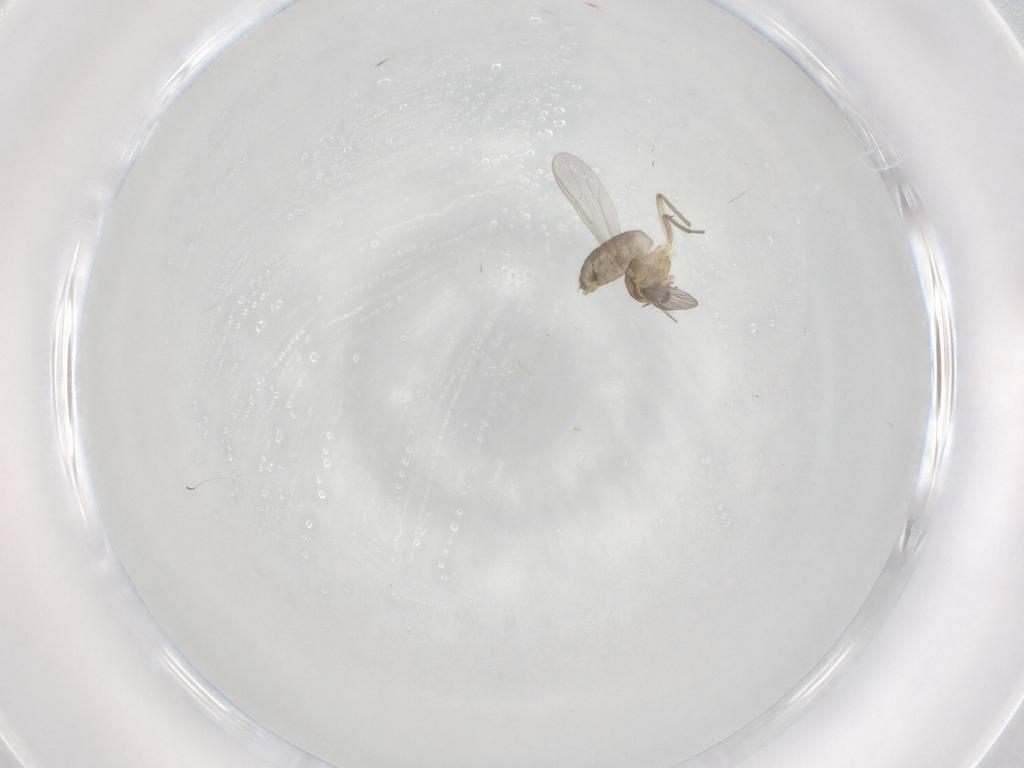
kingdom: Animalia
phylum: Arthropoda
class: Insecta
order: Diptera
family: Chironomidae
